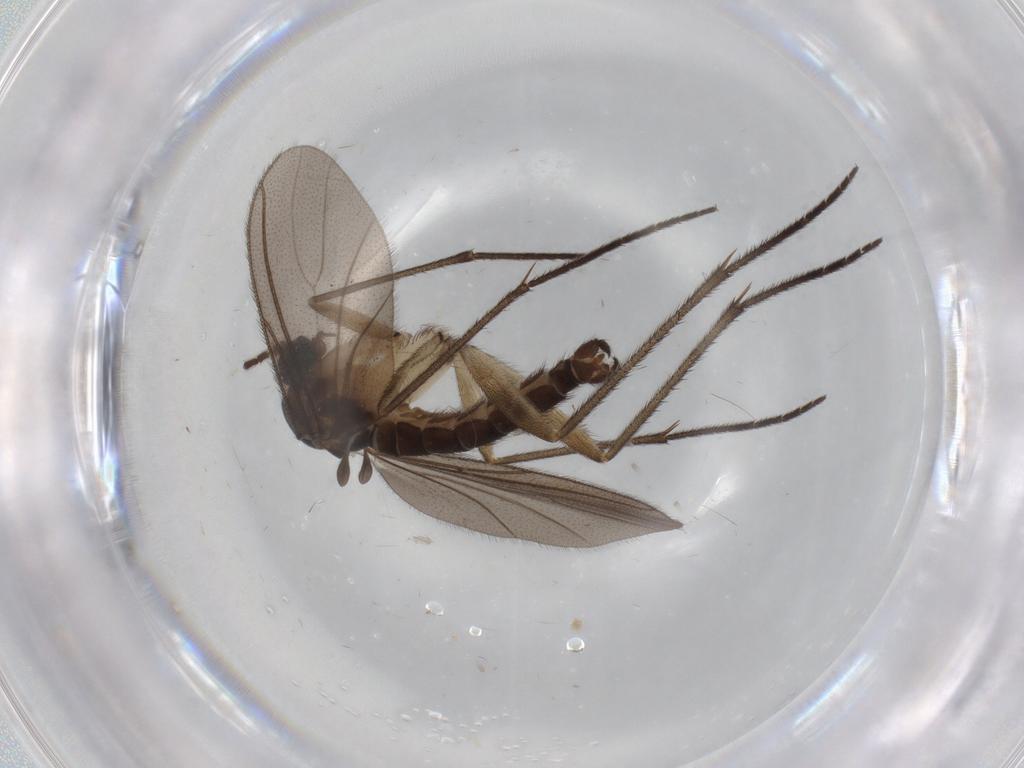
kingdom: Animalia
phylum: Arthropoda
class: Insecta
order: Diptera
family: Sciaridae
